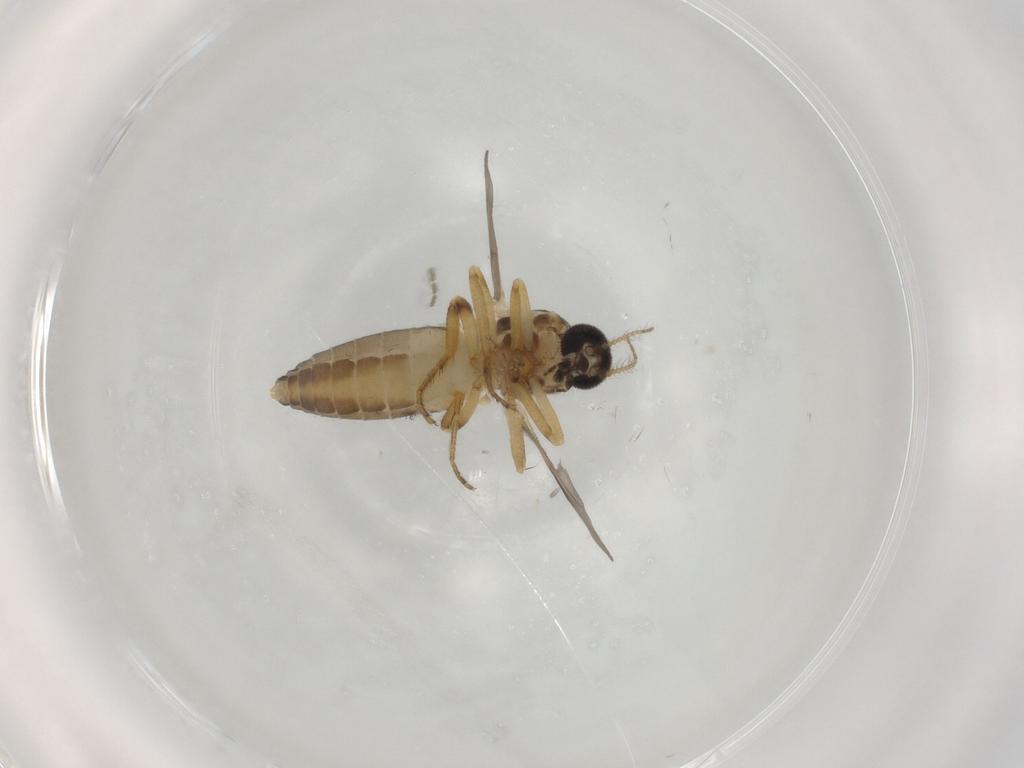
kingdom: Animalia
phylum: Arthropoda
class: Insecta
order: Diptera
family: Ceratopogonidae
